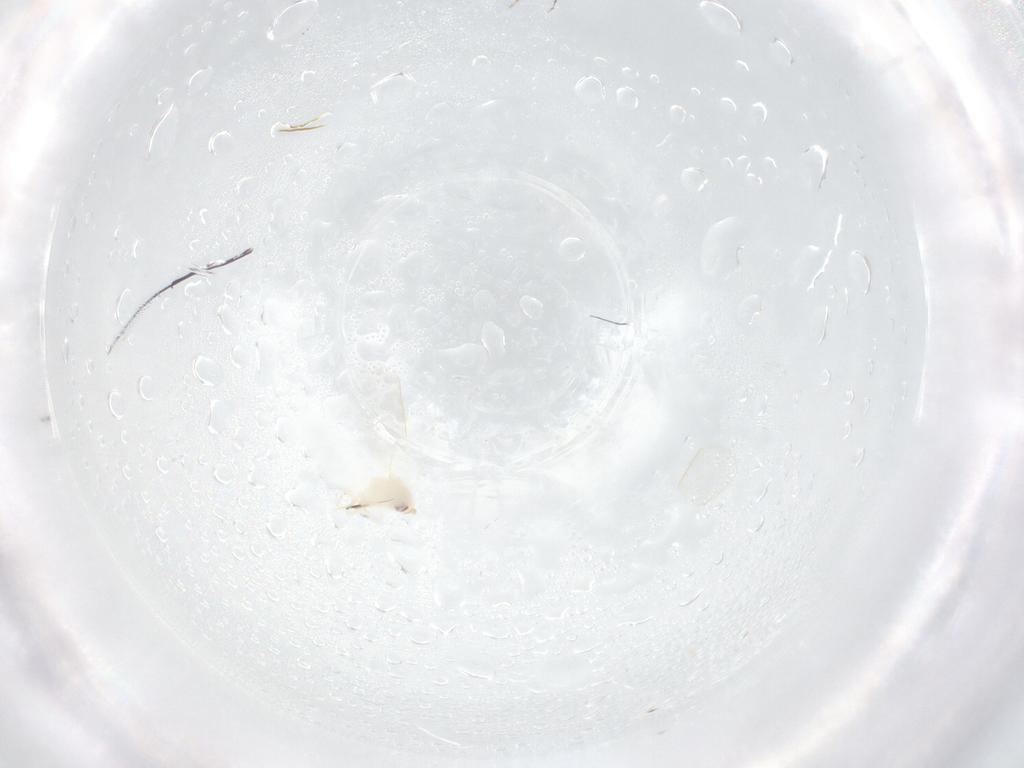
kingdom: Animalia
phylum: Arthropoda
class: Insecta
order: Hemiptera
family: Aleyrodidae
